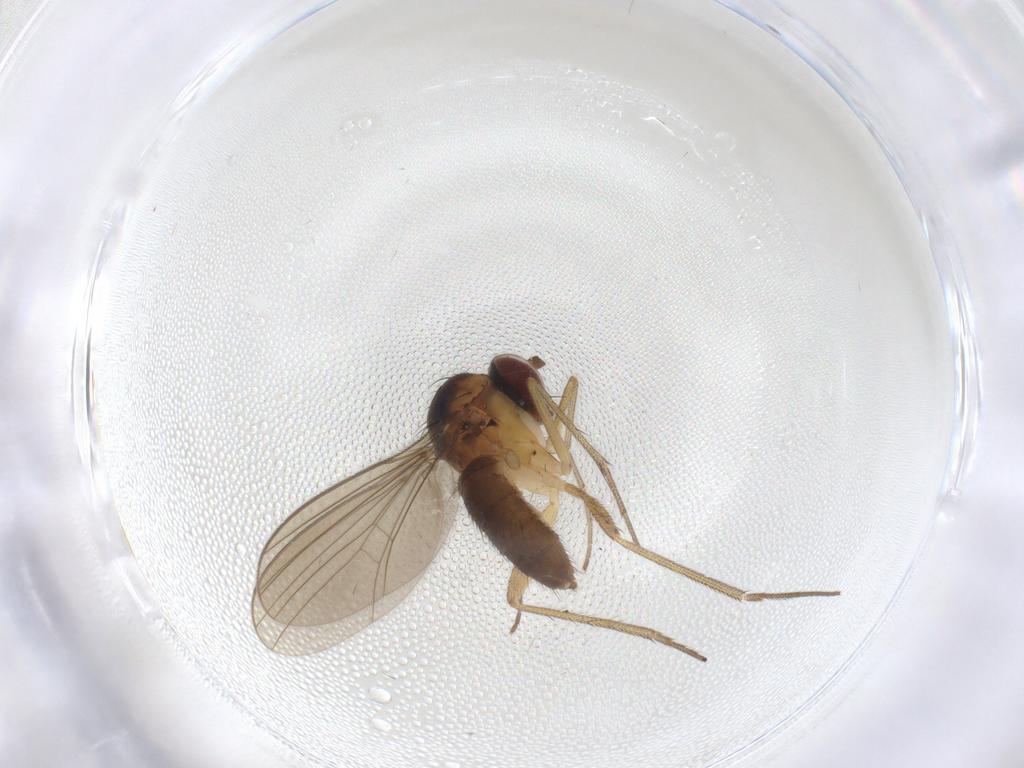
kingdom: Animalia
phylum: Arthropoda
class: Insecta
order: Diptera
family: Dolichopodidae
